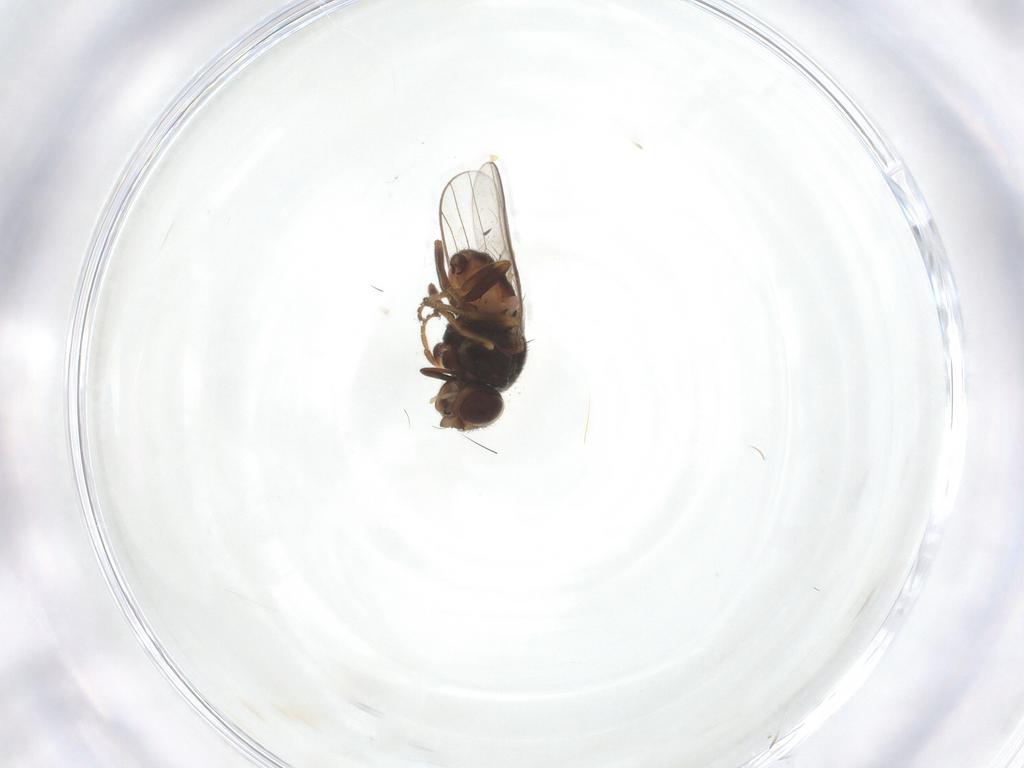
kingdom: Animalia
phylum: Arthropoda
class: Insecta
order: Diptera
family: Chloropidae
